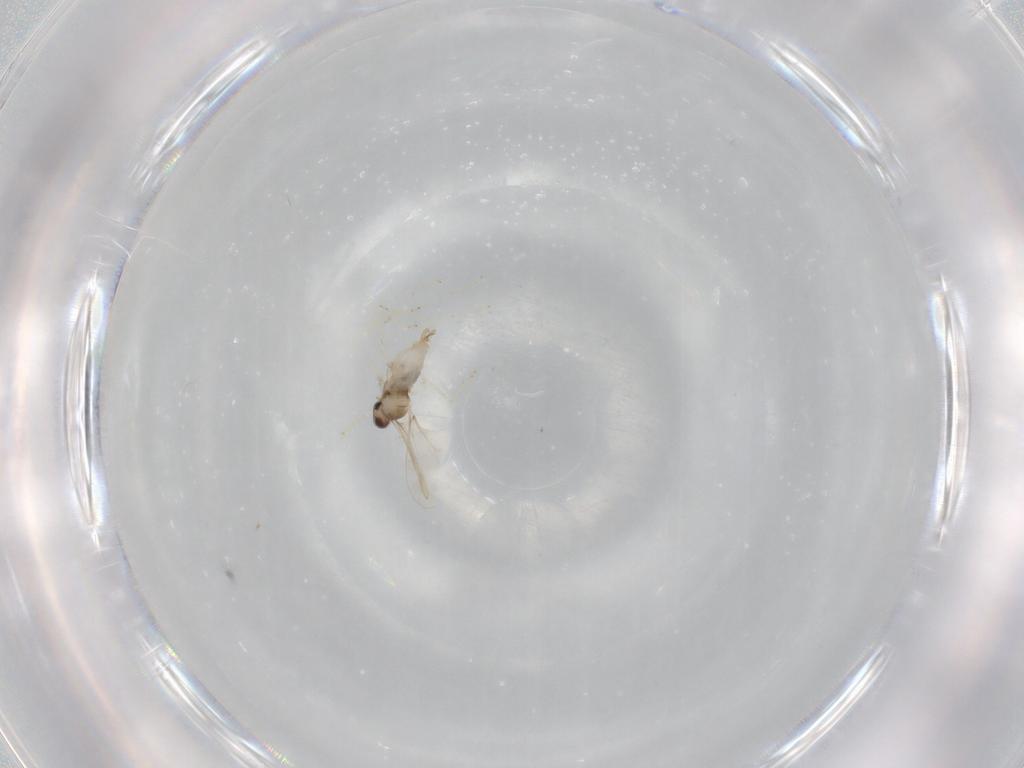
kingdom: Animalia
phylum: Arthropoda
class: Insecta
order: Diptera
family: Cecidomyiidae
